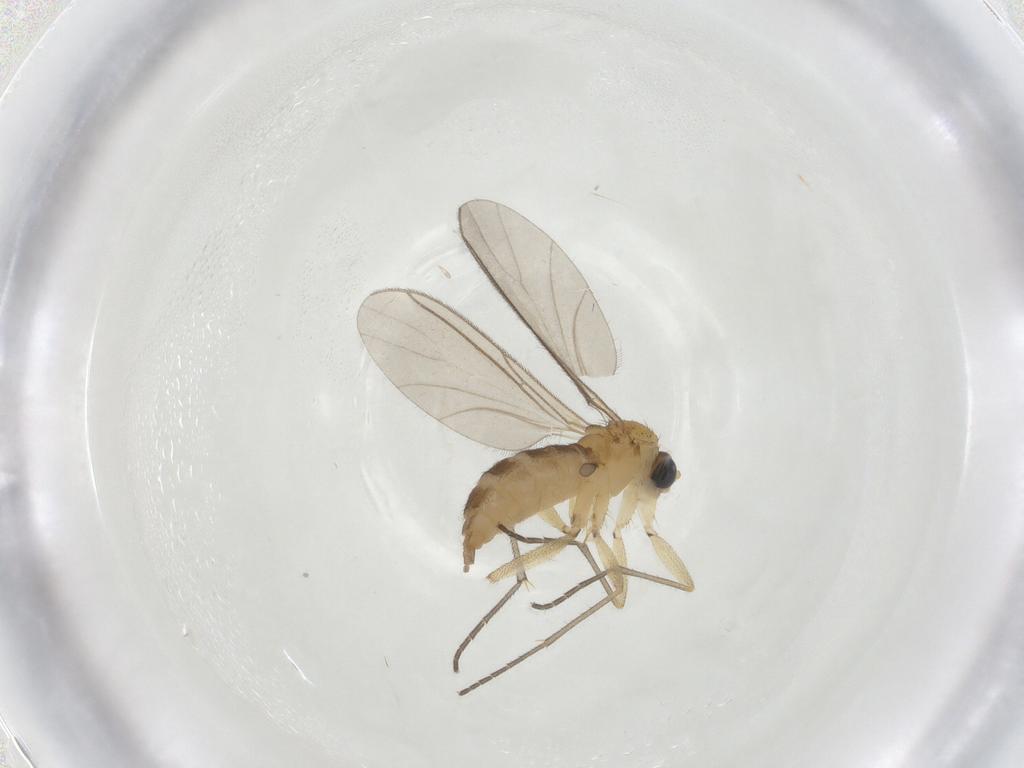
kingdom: Animalia
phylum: Arthropoda
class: Insecta
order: Diptera
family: Sciaridae
